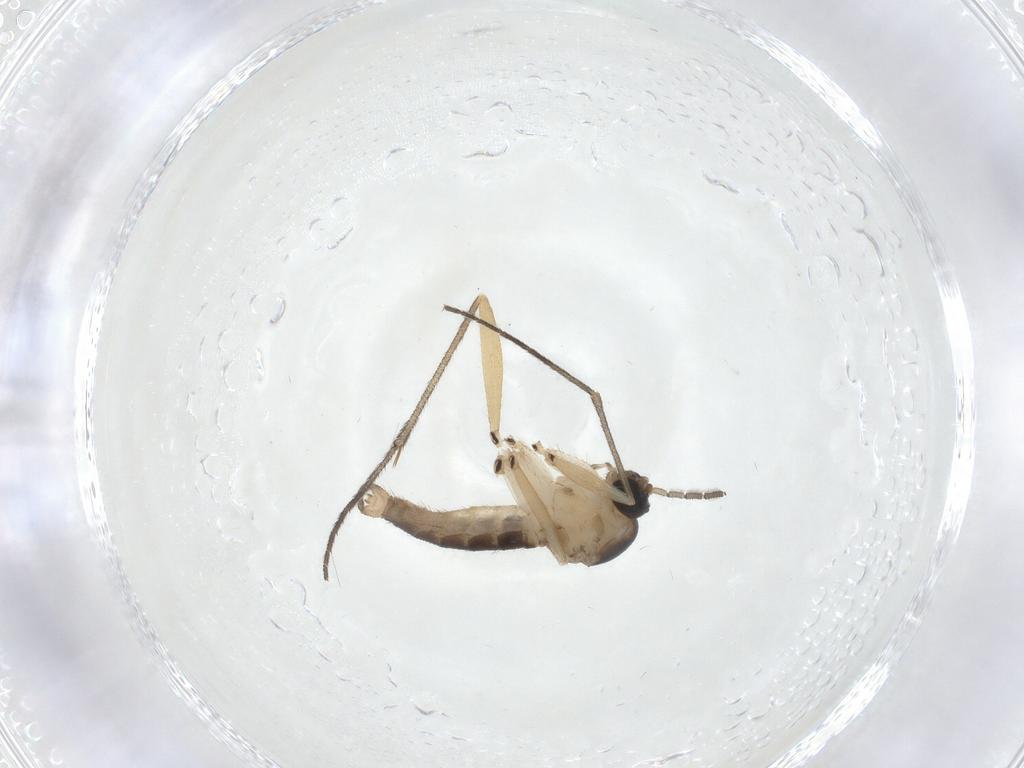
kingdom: Animalia
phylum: Arthropoda
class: Insecta
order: Diptera
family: Sciaridae
